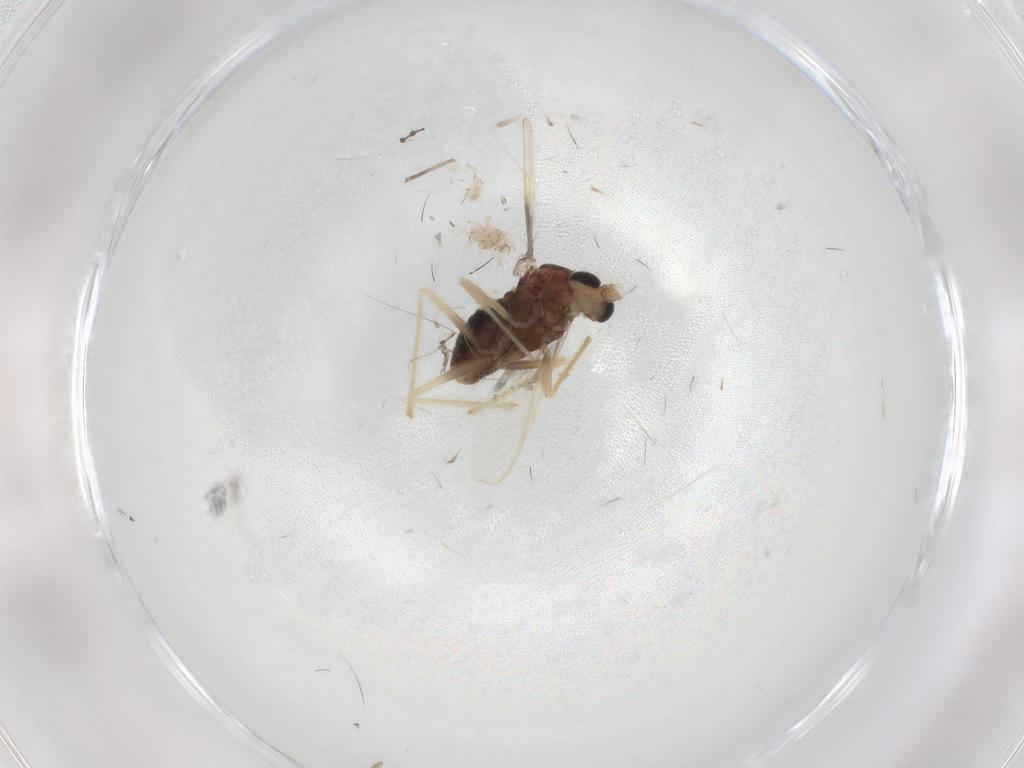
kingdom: Animalia
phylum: Arthropoda
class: Insecta
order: Diptera
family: Chironomidae
